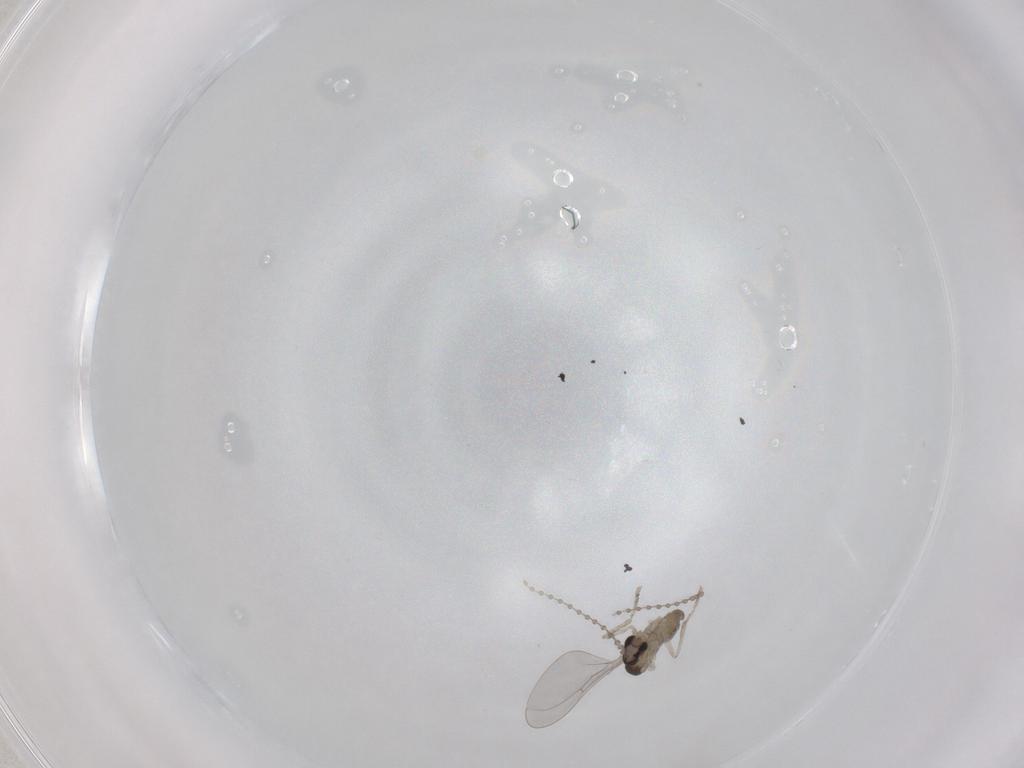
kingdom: Animalia
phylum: Arthropoda
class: Insecta
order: Diptera
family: Cecidomyiidae
